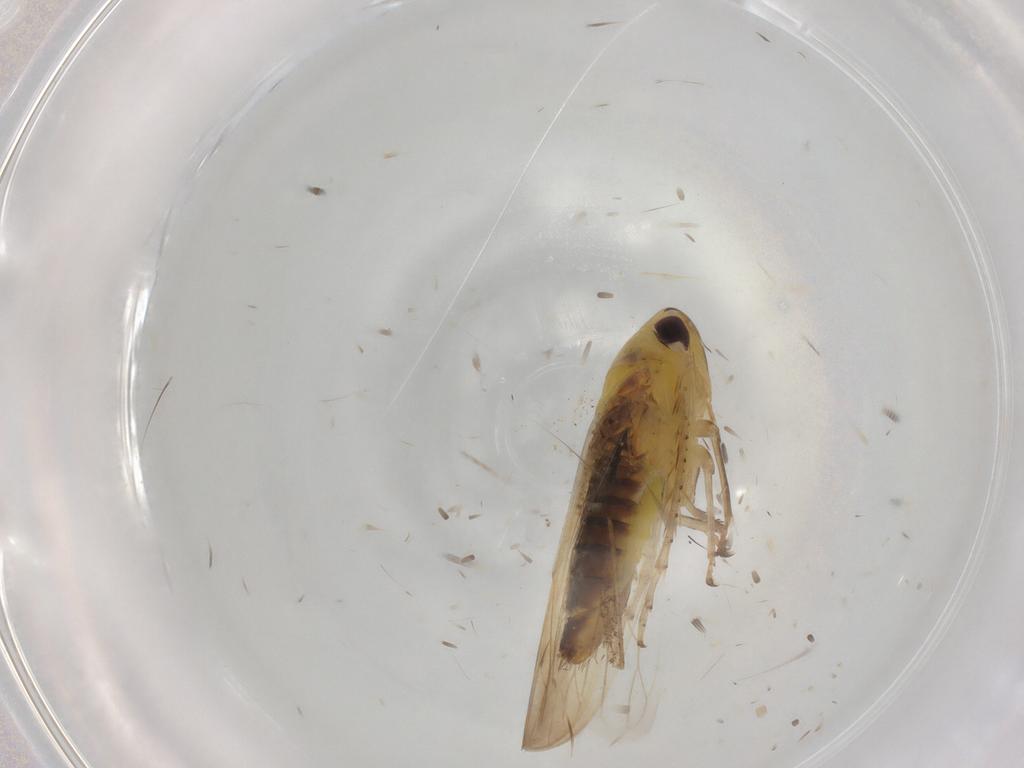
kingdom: Animalia
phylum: Arthropoda
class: Insecta
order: Hemiptera
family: Cicadellidae
